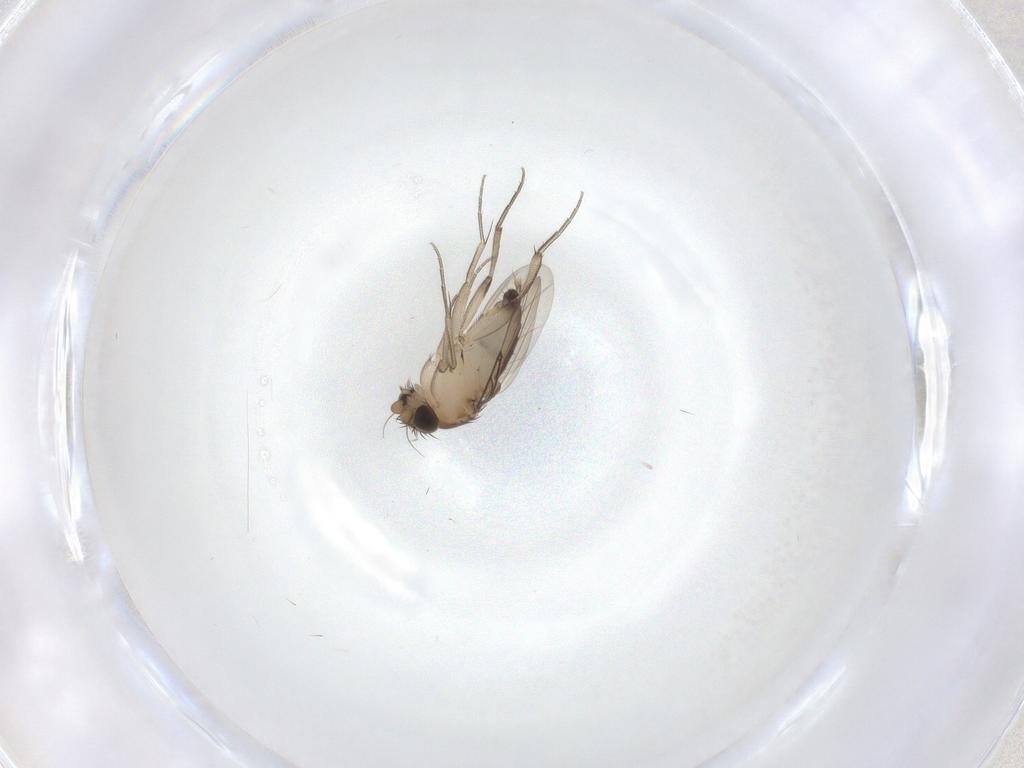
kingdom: Animalia
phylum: Arthropoda
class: Insecta
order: Diptera
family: Phoridae
